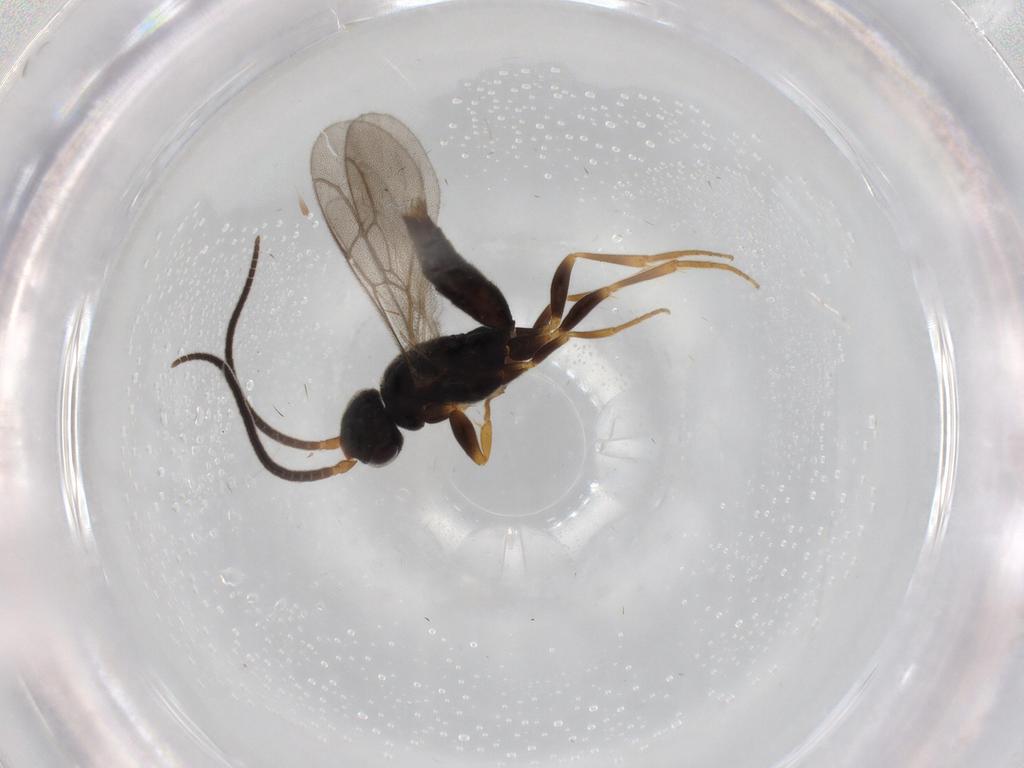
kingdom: Animalia
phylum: Arthropoda
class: Insecta
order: Hymenoptera
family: Sclerogibbidae
